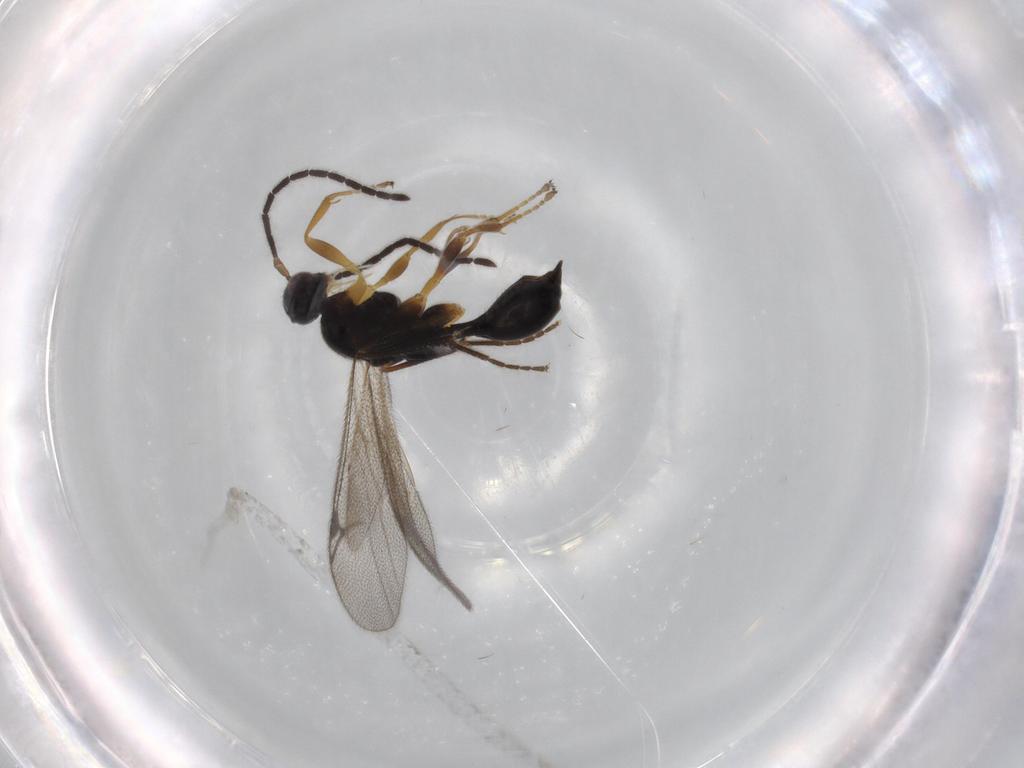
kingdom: Animalia
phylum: Arthropoda
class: Insecta
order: Hymenoptera
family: Proctotrupidae
